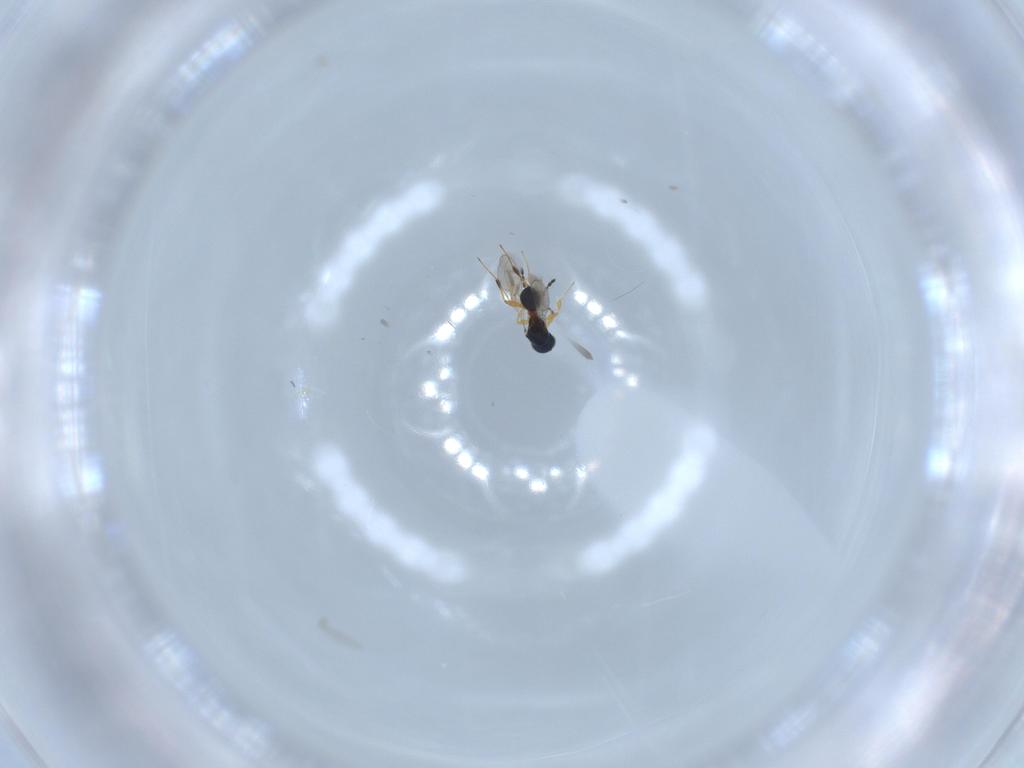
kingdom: Animalia
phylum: Arthropoda
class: Insecta
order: Hymenoptera
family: Platygastridae
